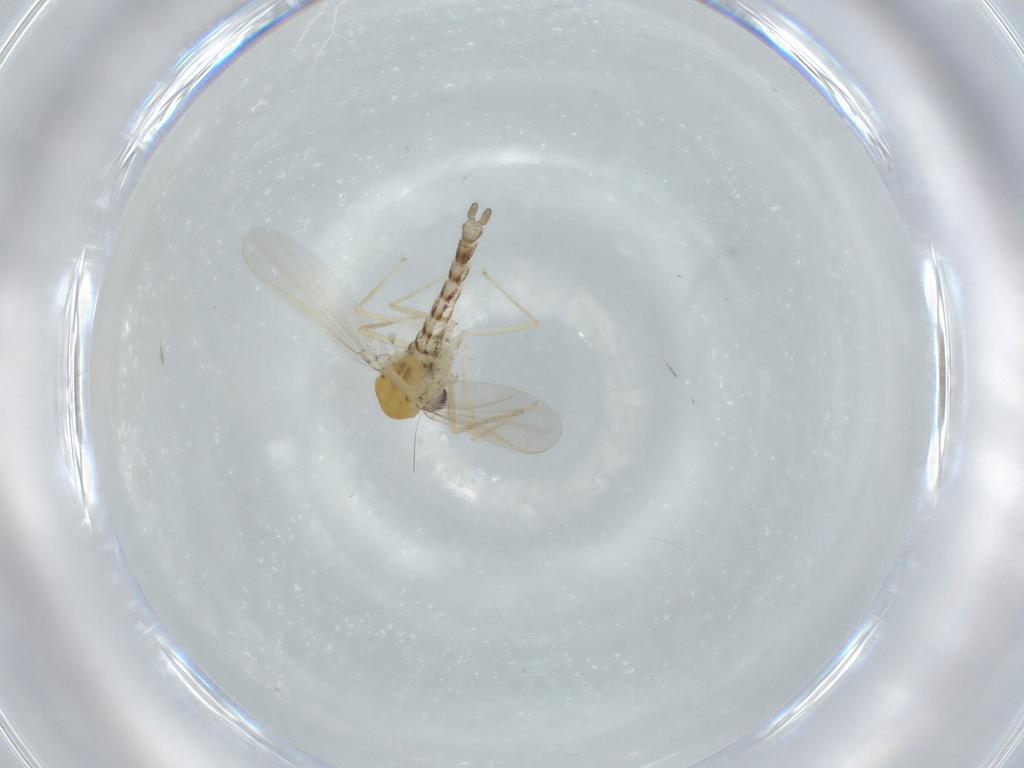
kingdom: Animalia
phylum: Arthropoda
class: Insecta
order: Diptera
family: Chironomidae
